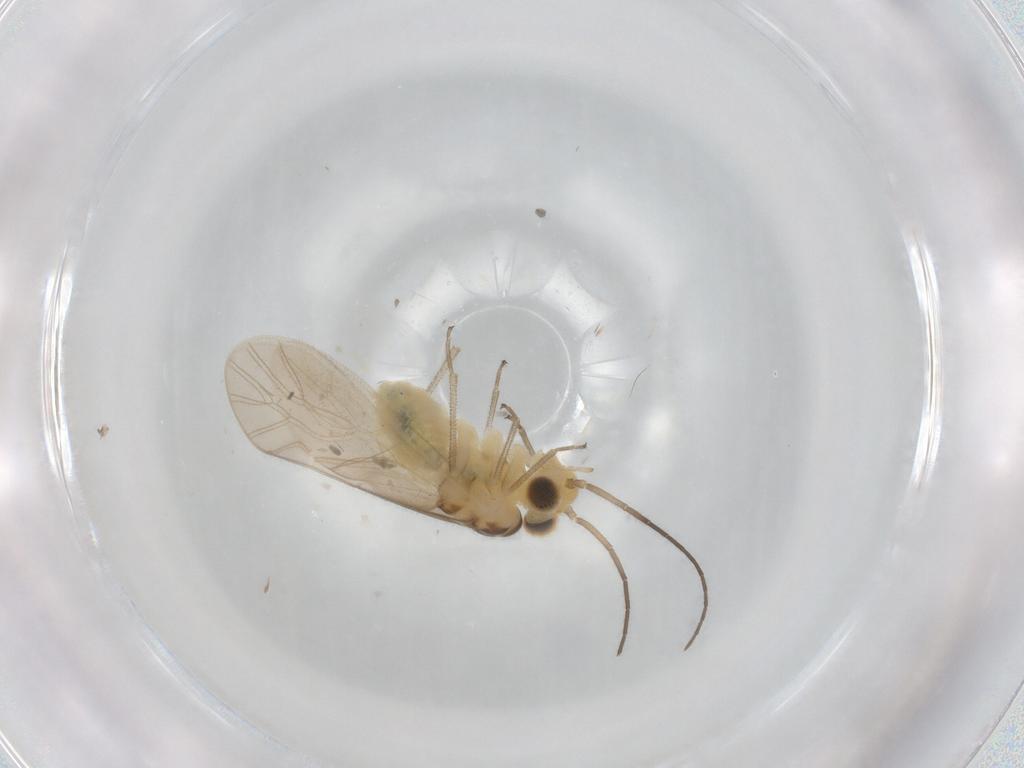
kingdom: Animalia
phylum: Arthropoda
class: Insecta
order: Psocodea
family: Caeciliusidae
